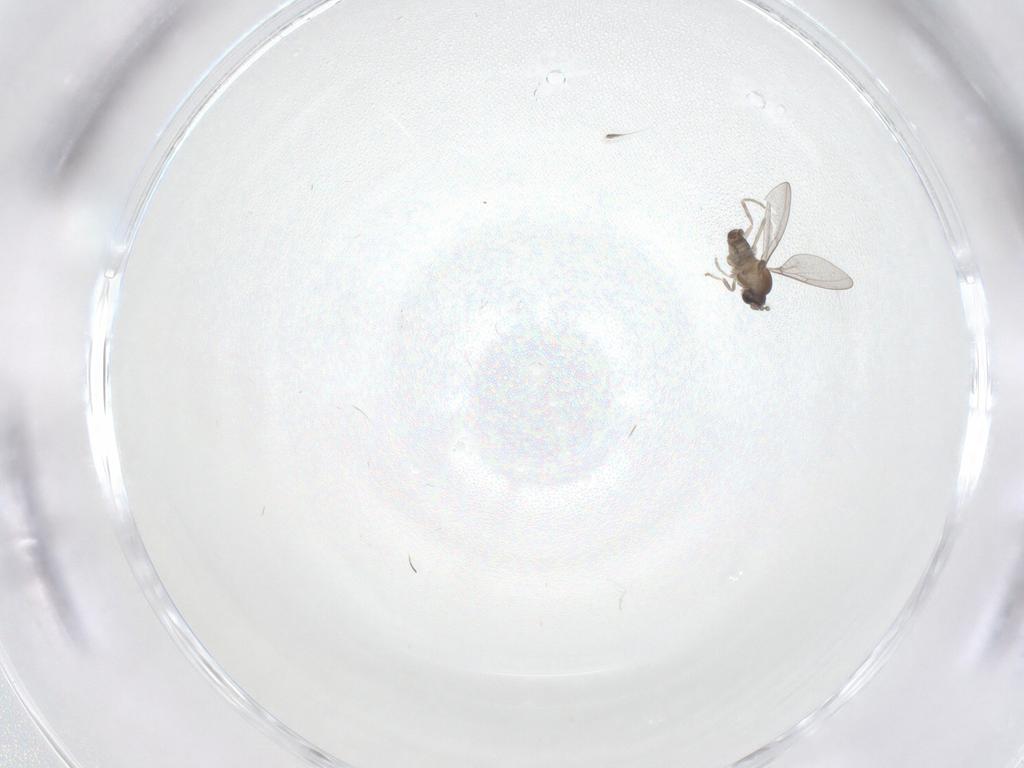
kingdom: Animalia
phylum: Arthropoda
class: Insecta
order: Diptera
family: Cecidomyiidae
